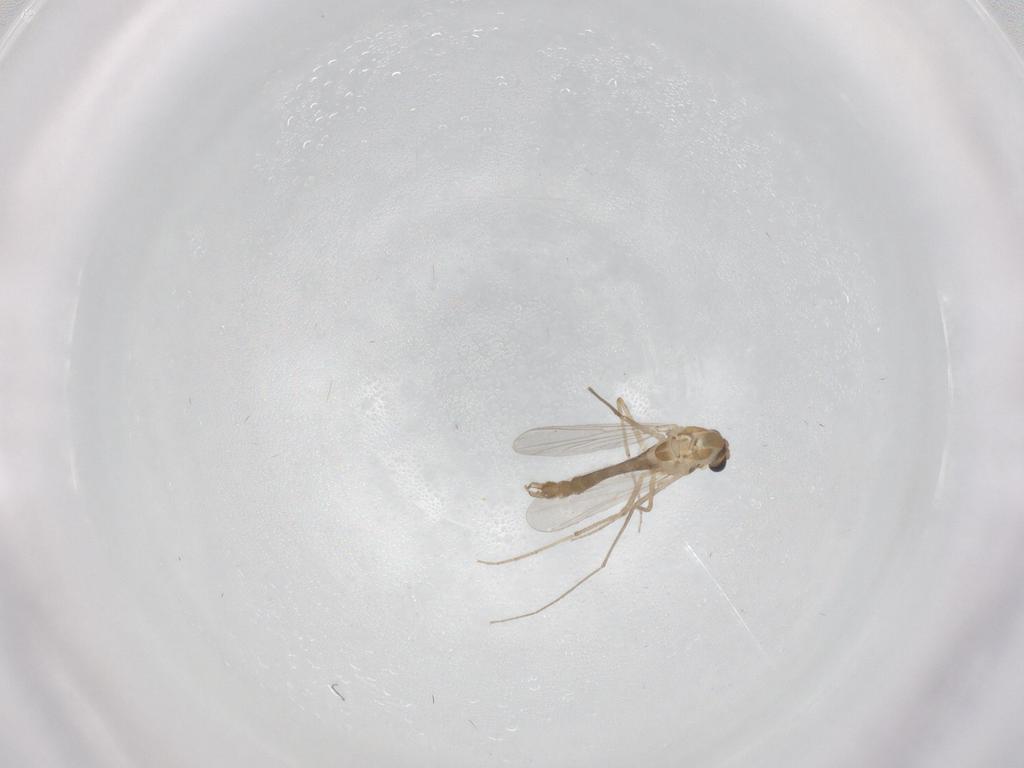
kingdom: Animalia
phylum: Arthropoda
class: Insecta
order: Diptera
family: Chironomidae
